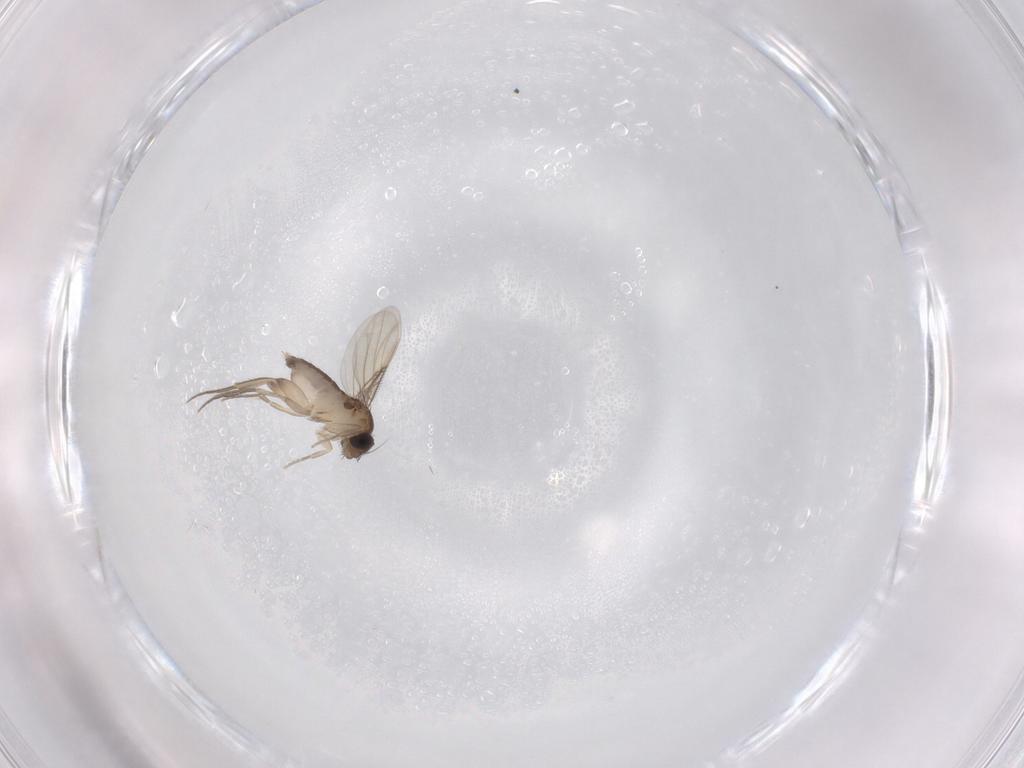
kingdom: Animalia
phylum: Arthropoda
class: Insecta
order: Diptera
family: Phoridae
